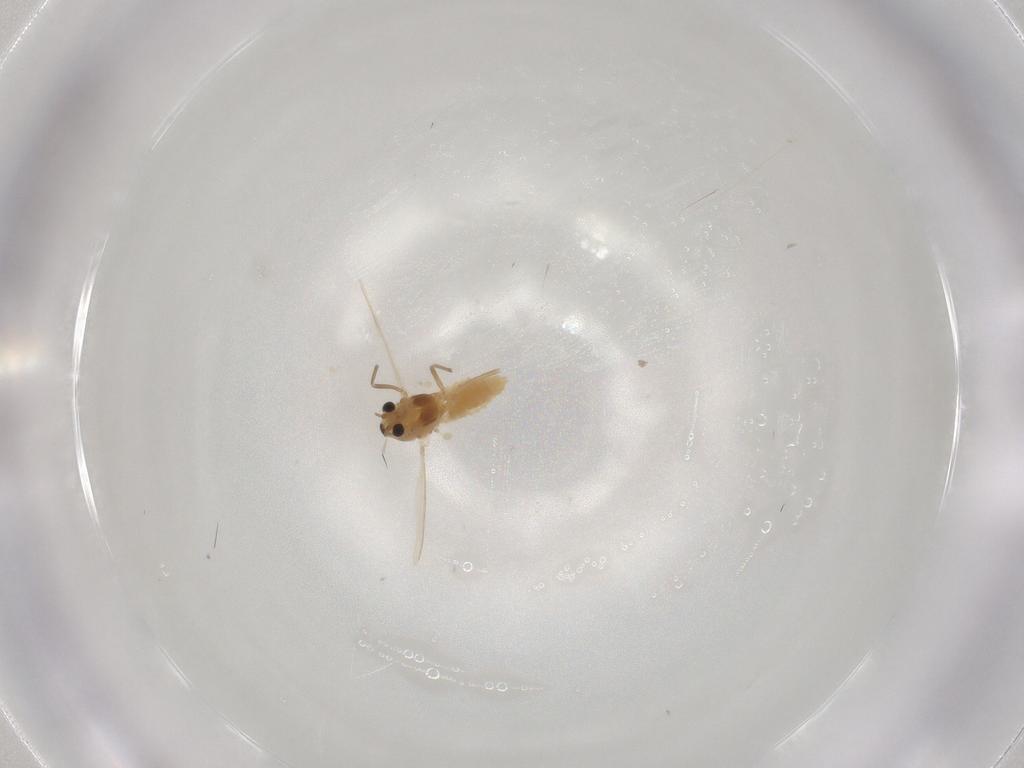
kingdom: Animalia
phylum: Arthropoda
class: Insecta
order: Diptera
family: Chironomidae
